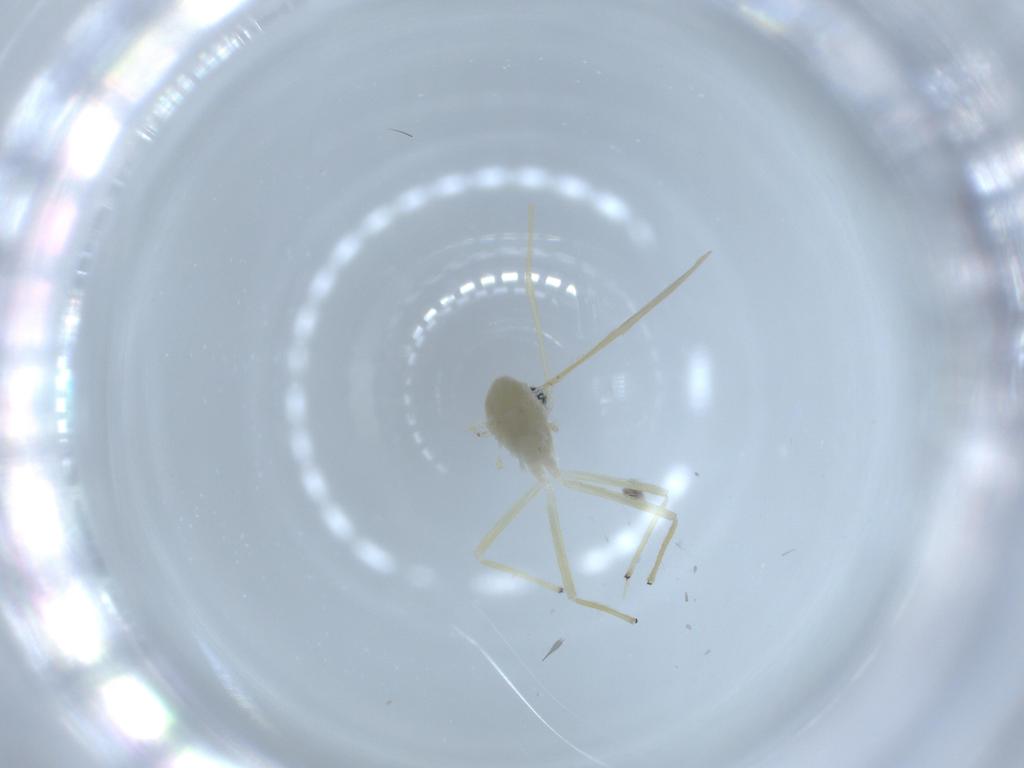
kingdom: Animalia
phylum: Arthropoda
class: Insecta
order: Diptera
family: Chironomidae
